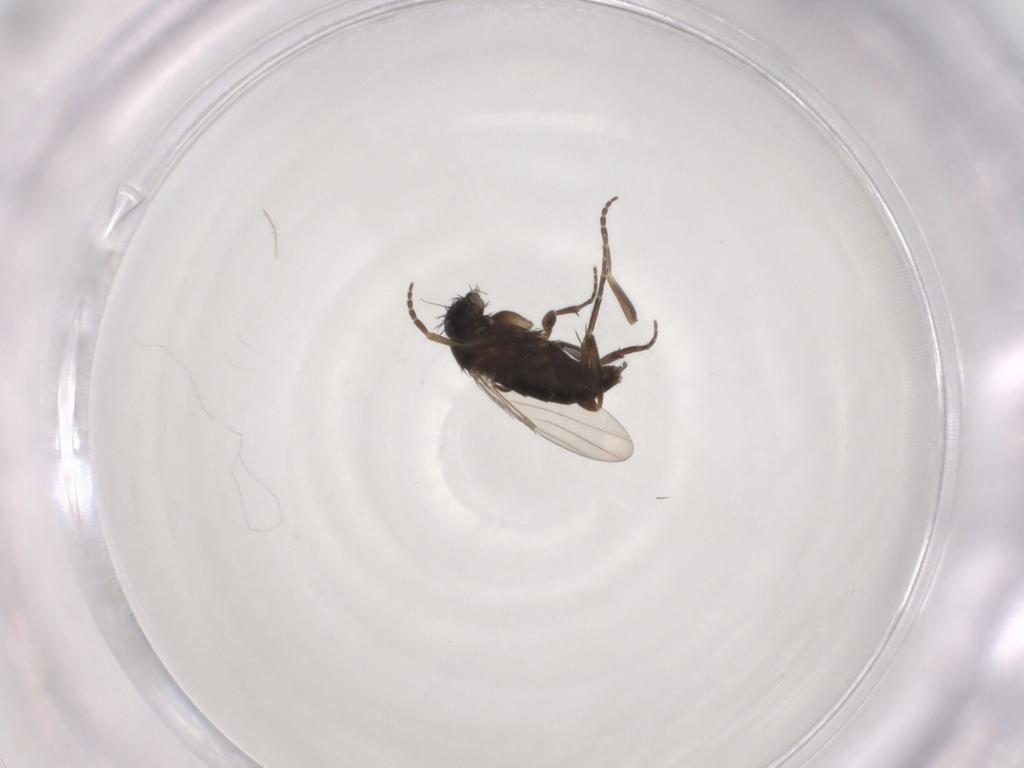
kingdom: Animalia
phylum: Arthropoda
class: Insecta
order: Diptera
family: Phoridae
